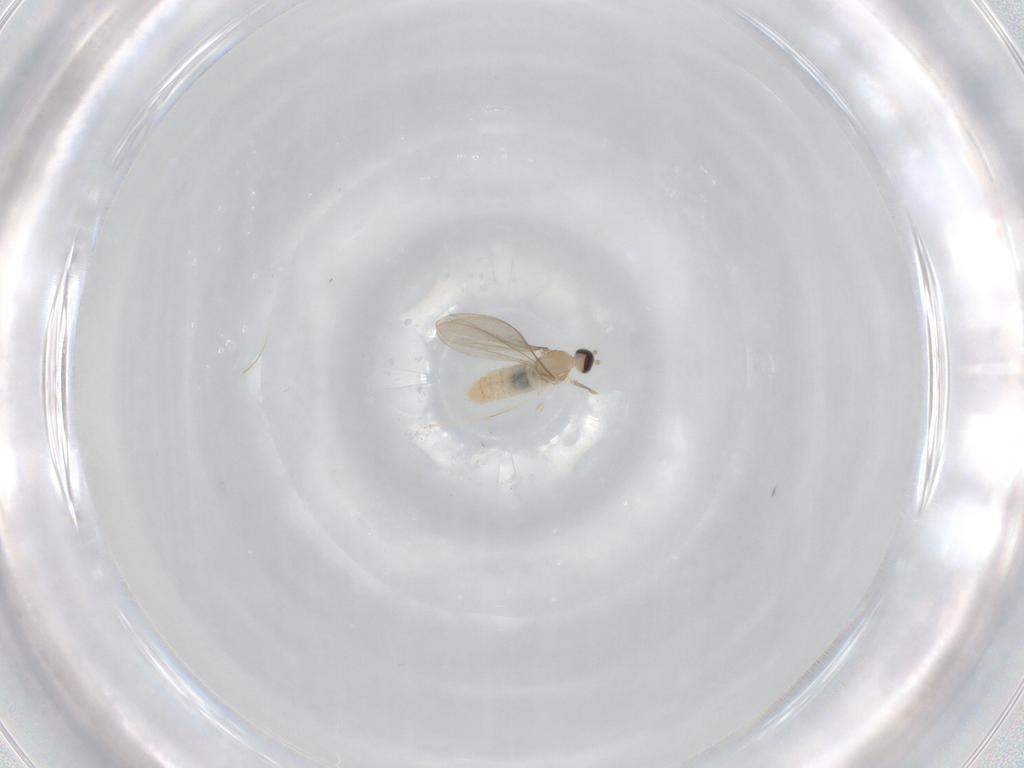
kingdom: Animalia
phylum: Arthropoda
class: Insecta
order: Diptera
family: Cecidomyiidae
